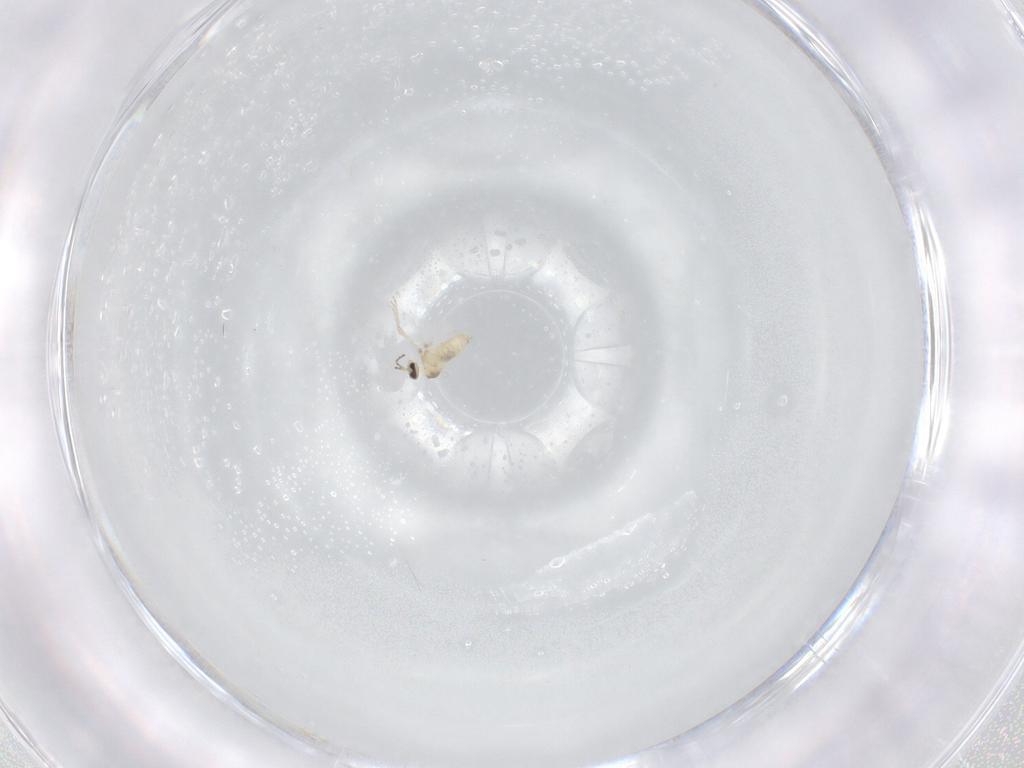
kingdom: Animalia
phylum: Arthropoda
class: Insecta
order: Diptera
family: Cecidomyiidae
